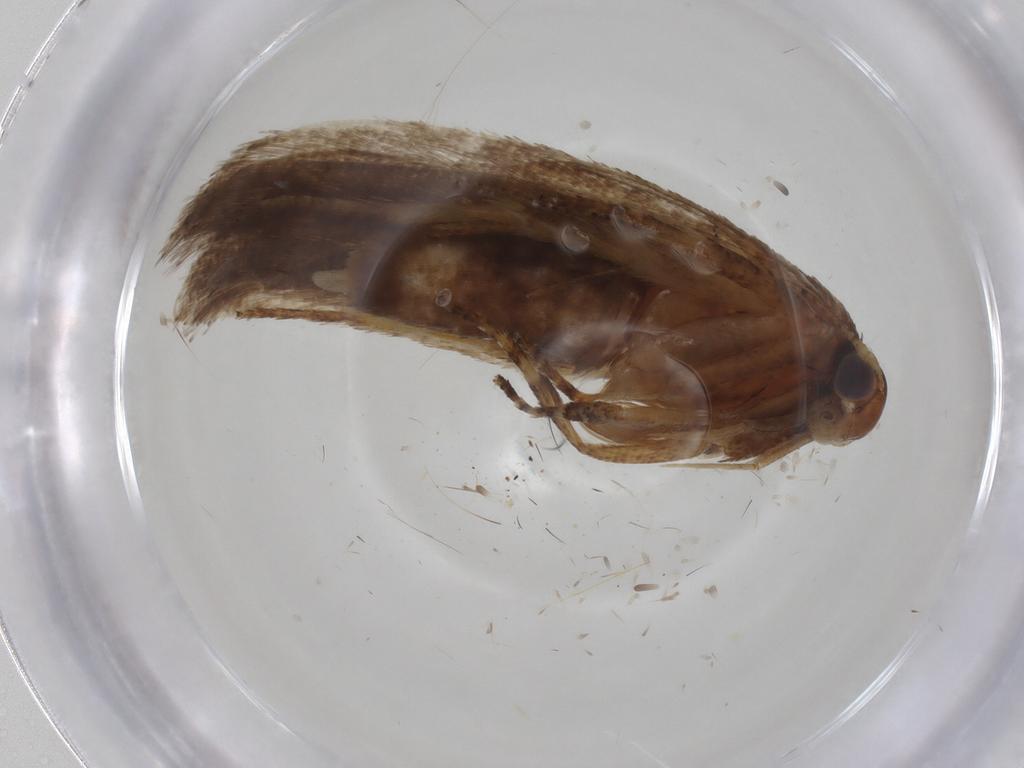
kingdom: Animalia
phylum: Arthropoda
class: Insecta
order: Lepidoptera
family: Gelechiidae
